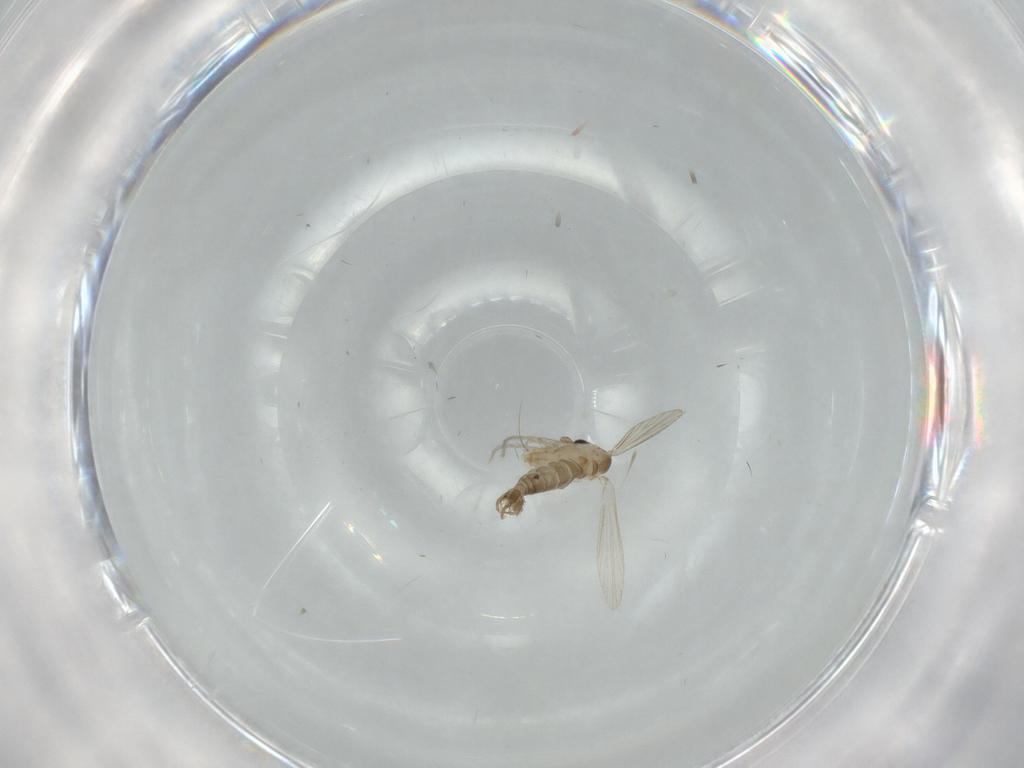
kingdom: Animalia
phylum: Arthropoda
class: Insecta
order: Diptera
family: Psychodidae
